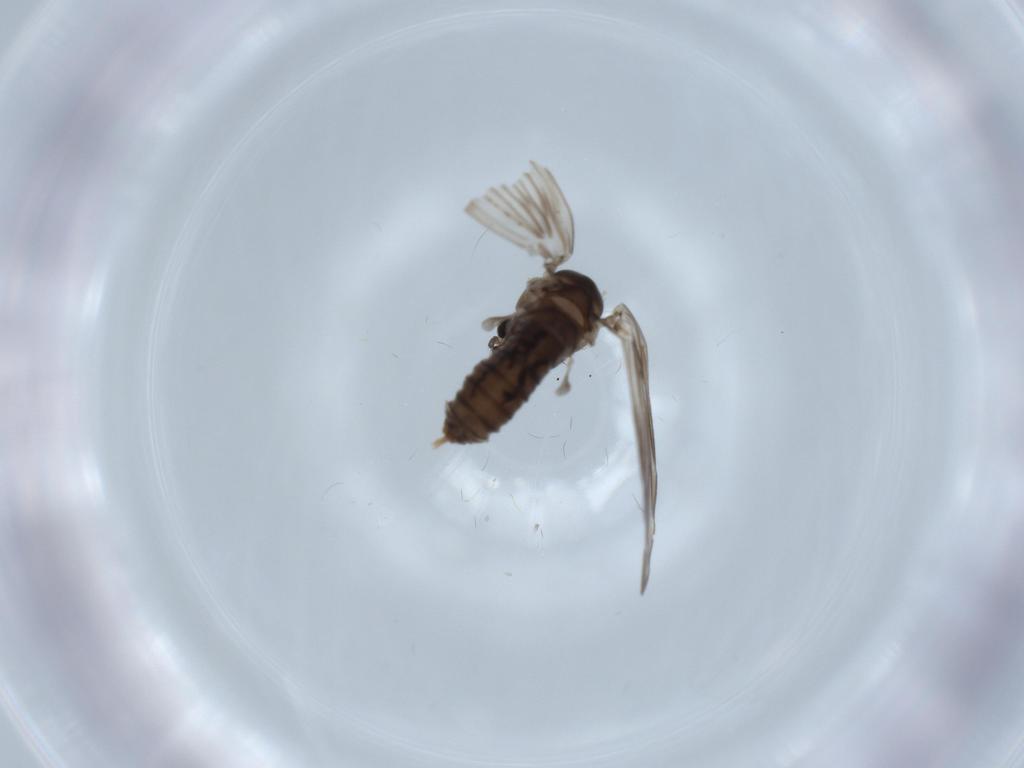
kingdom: Animalia
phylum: Arthropoda
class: Insecta
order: Diptera
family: Psychodidae
